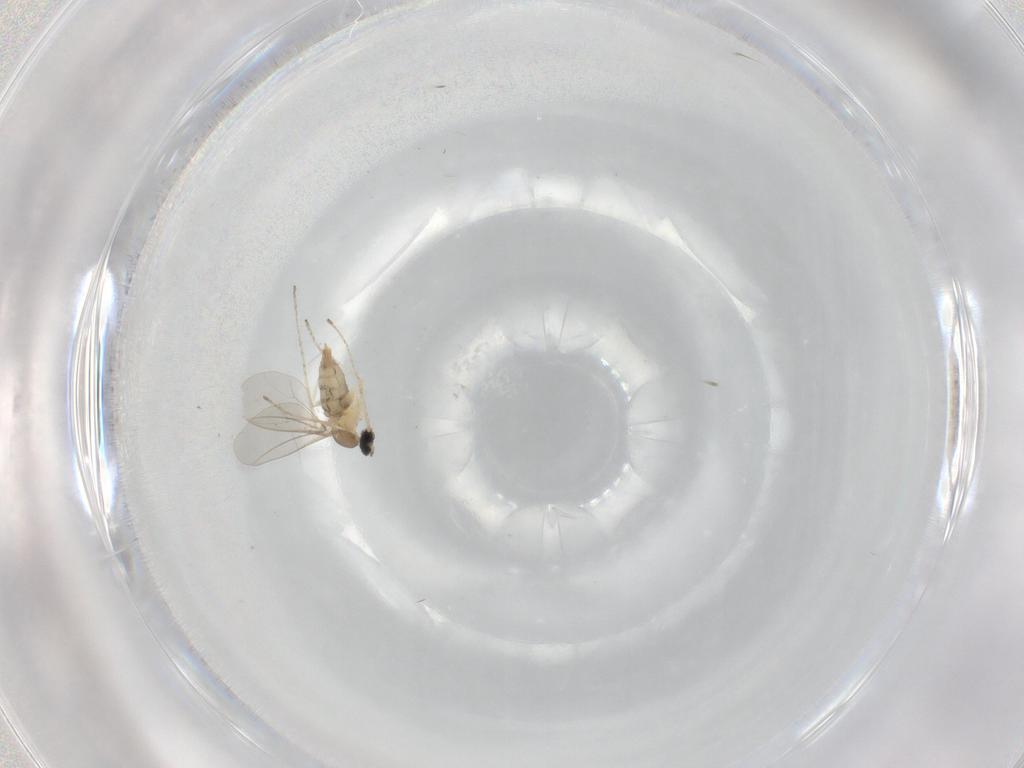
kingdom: Animalia
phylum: Arthropoda
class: Insecta
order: Diptera
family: Cecidomyiidae
